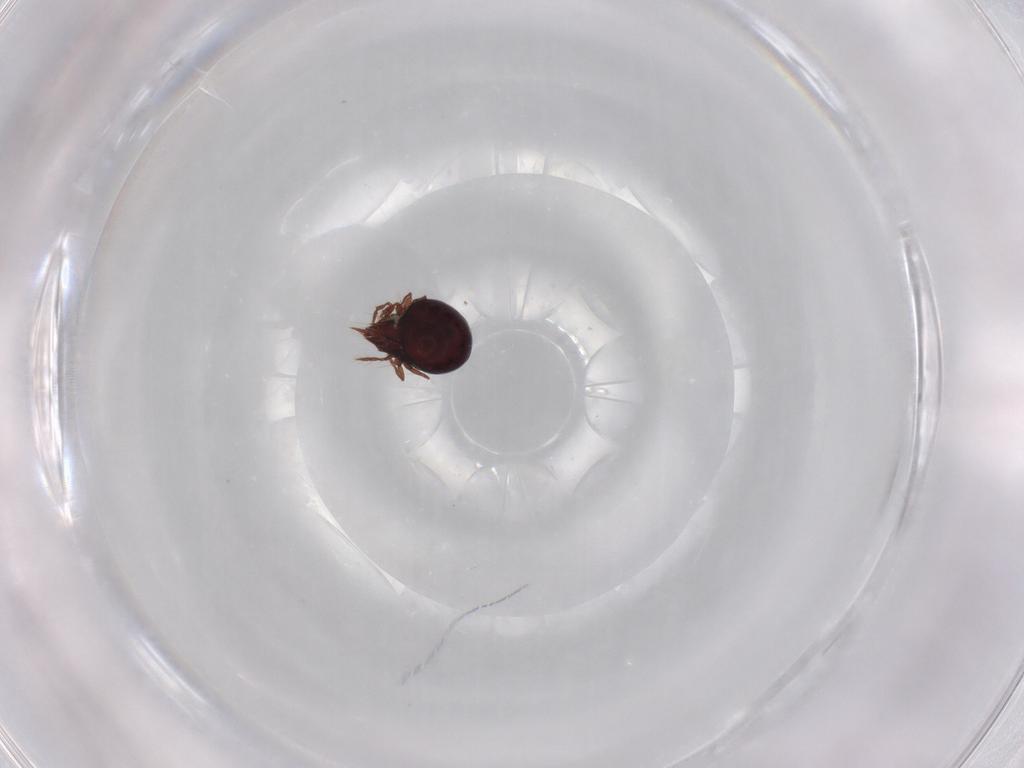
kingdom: Animalia
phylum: Arthropoda
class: Arachnida
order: Sarcoptiformes
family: Ceratoppiidae
